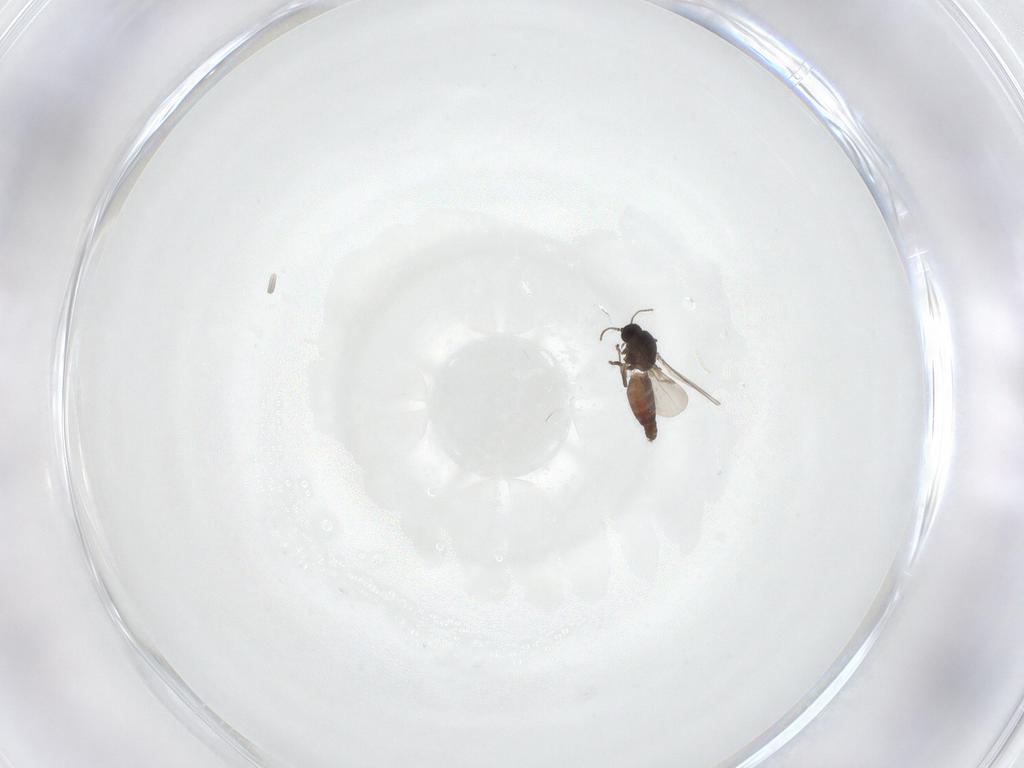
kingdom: Animalia
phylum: Arthropoda
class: Insecta
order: Diptera
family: Ceratopogonidae
